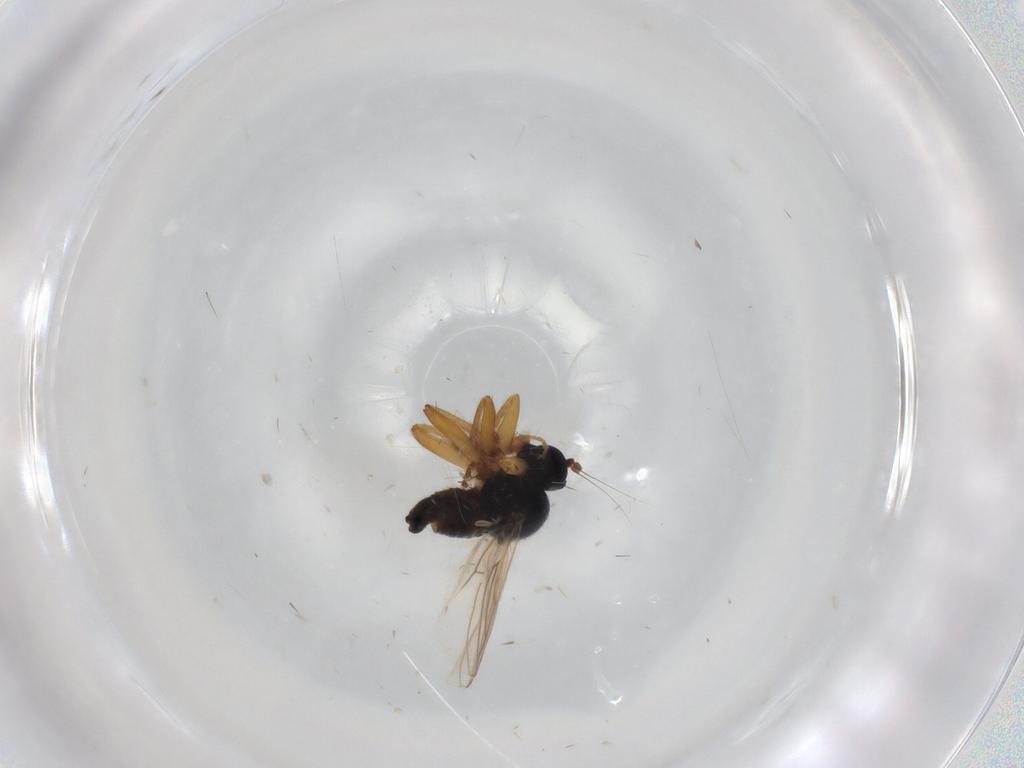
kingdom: Animalia
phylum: Arthropoda
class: Insecta
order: Diptera
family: Hybotidae
